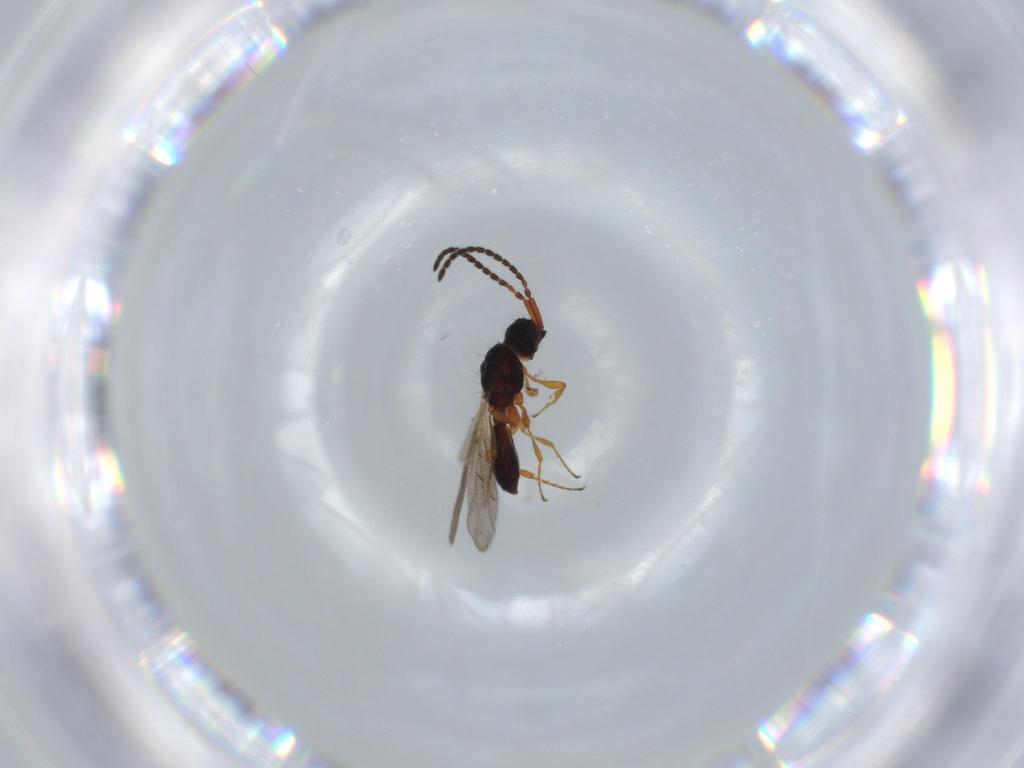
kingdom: Animalia
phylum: Arthropoda
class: Insecta
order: Hymenoptera
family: Diapriidae
